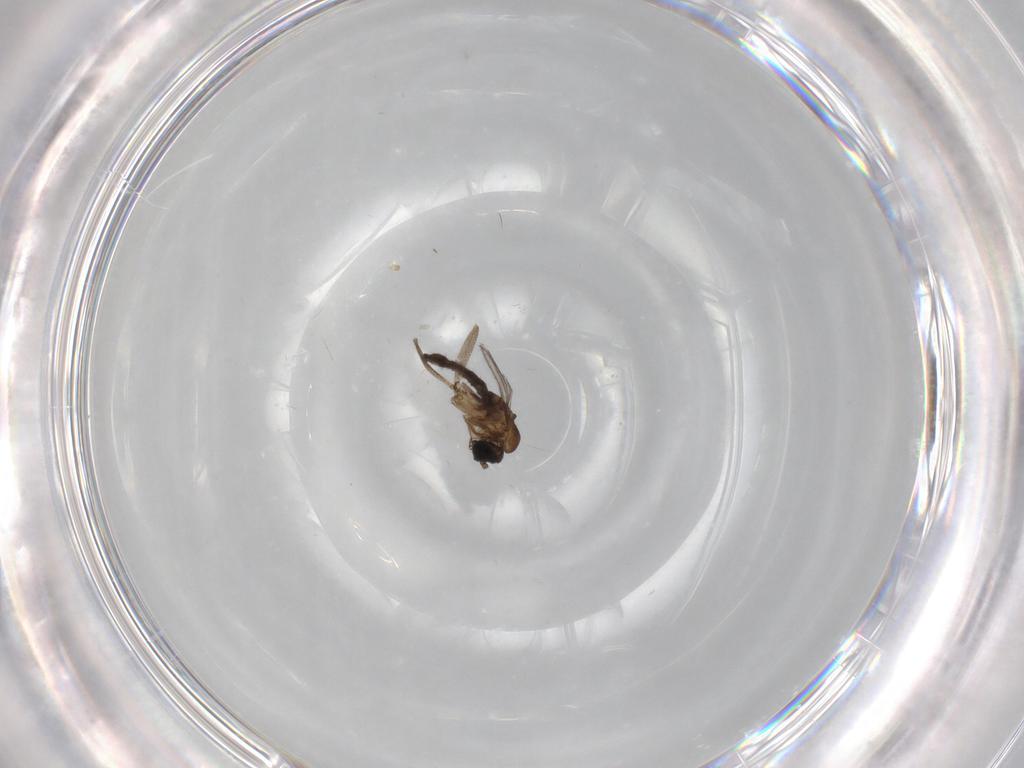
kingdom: Animalia
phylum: Arthropoda
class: Insecta
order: Diptera
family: Sciaridae
